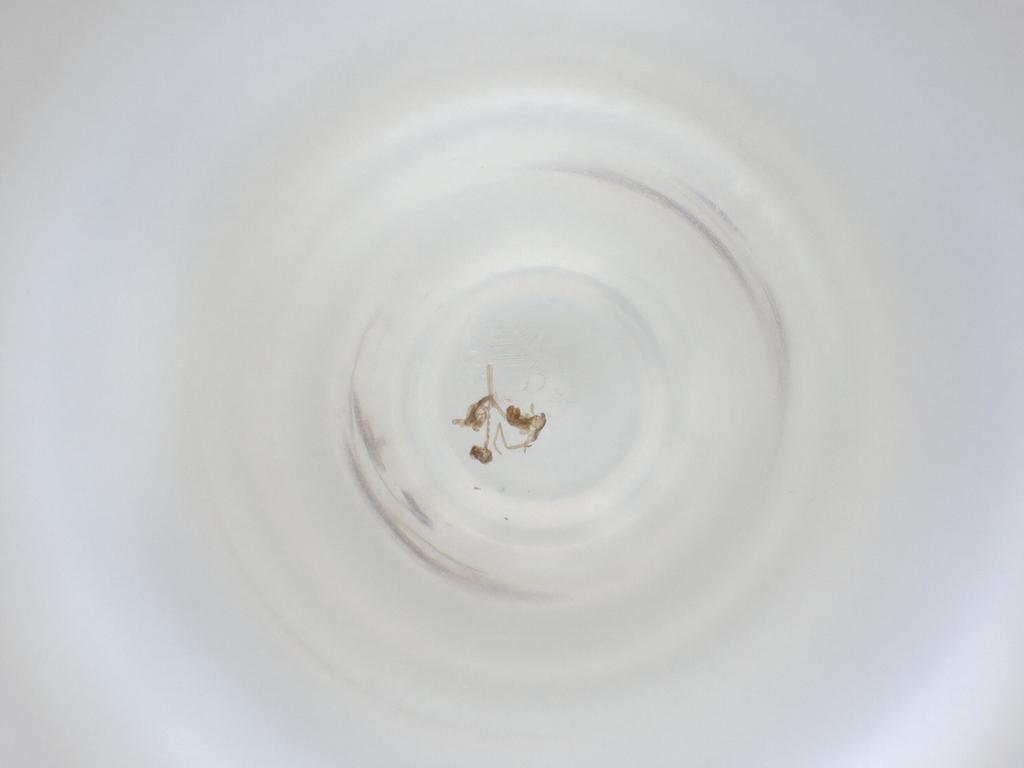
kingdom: Animalia
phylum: Arthropoda
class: Insecta
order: Diptera
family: Cecidomyiidae
